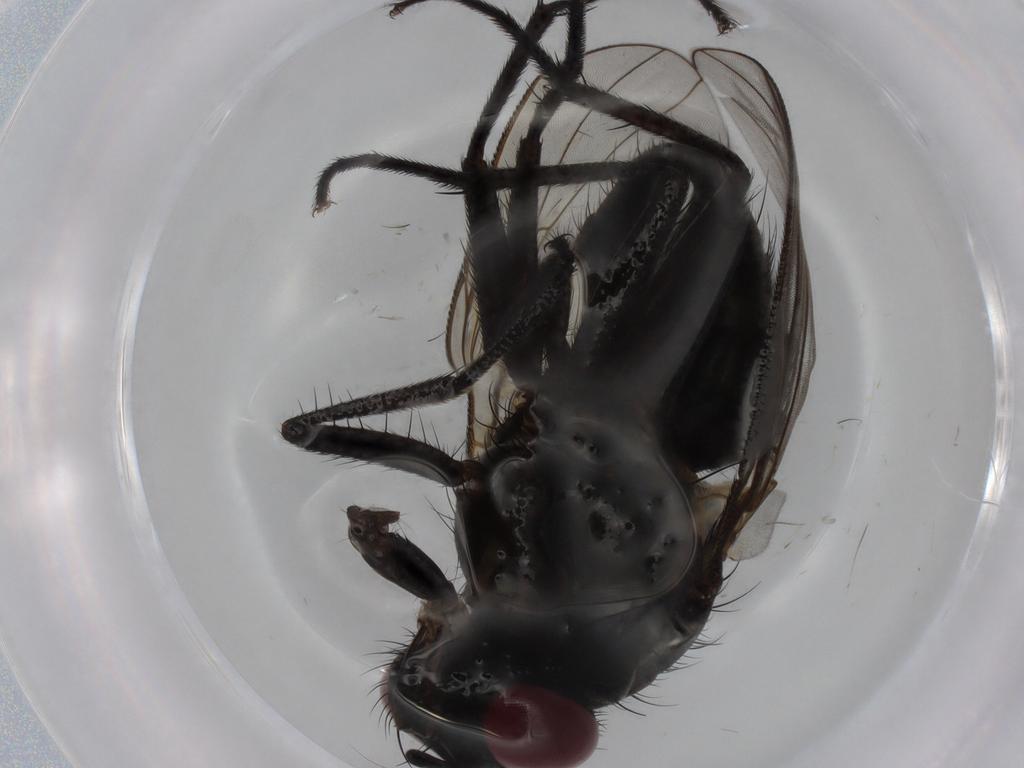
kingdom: Animalia
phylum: Arthropoda
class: Insecta
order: Diptera
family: Muscidae
